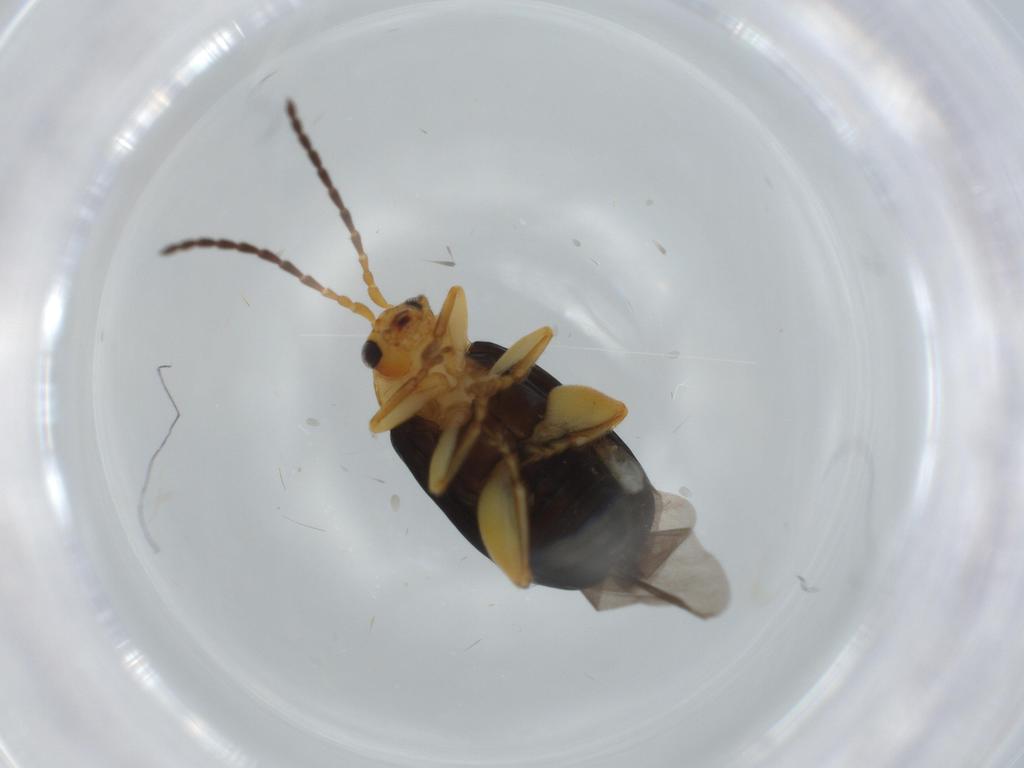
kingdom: Animalia
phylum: Arthropoda
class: Insecta
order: Coleoptera
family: Chrysomelidae
